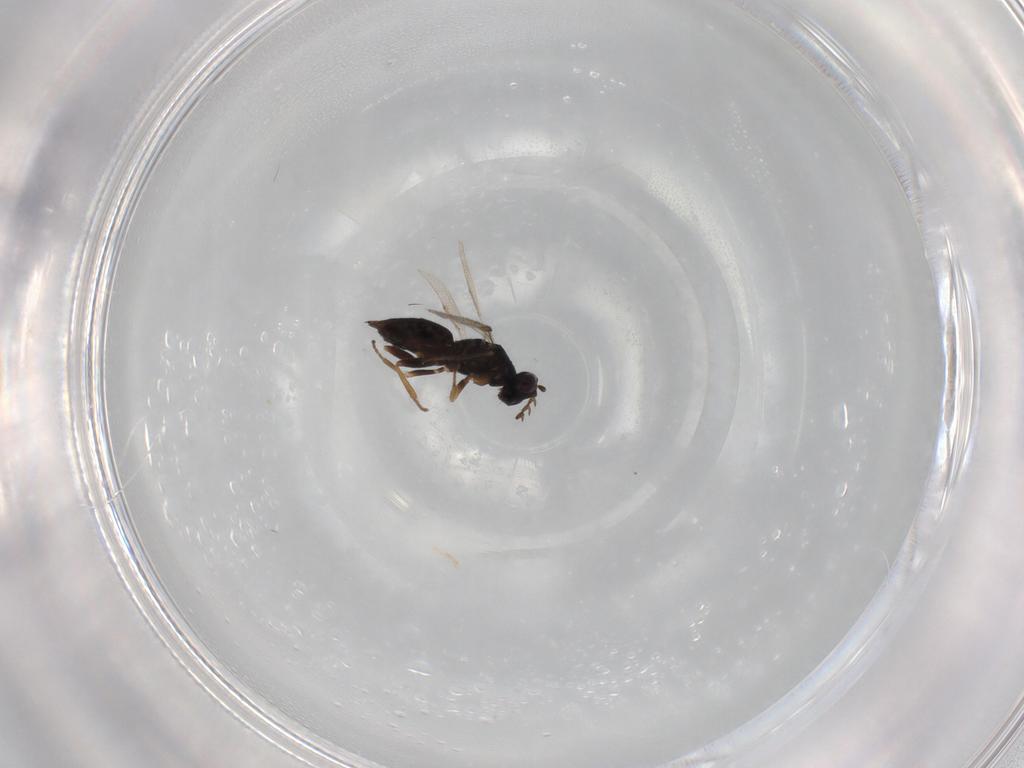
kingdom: Animalia
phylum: Arthropoda
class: Insecta
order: Hymenoptera
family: Eulophidae
